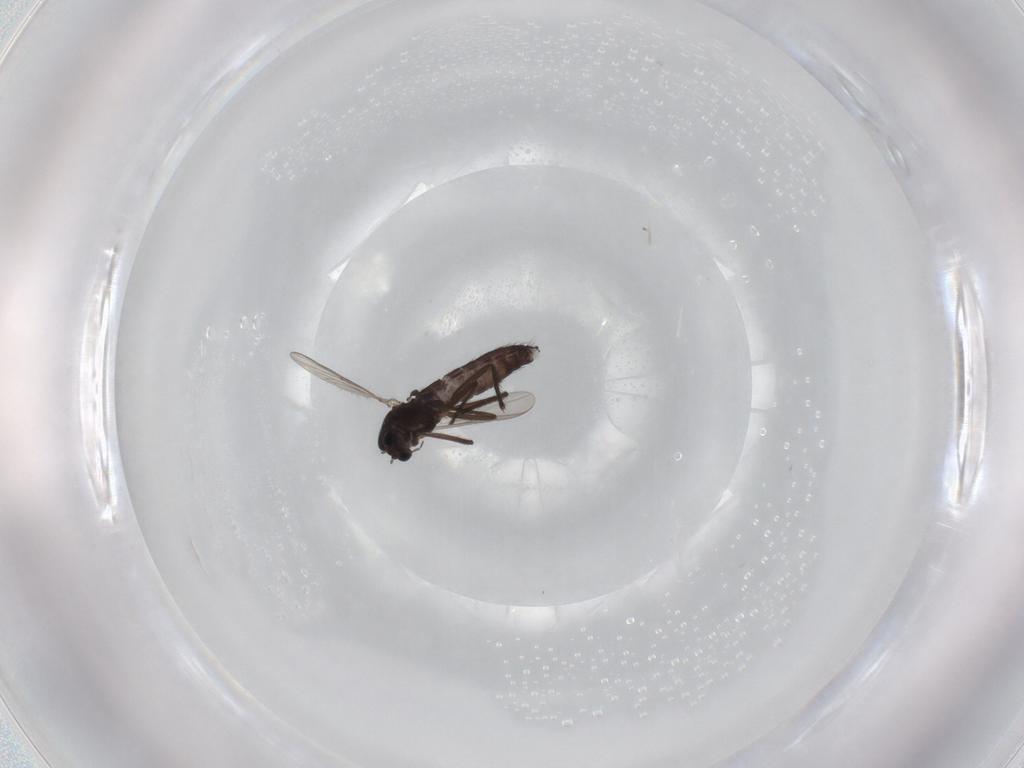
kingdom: Animalia
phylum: Arthropoda
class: Insecta
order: Diptera
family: Chironomidae
